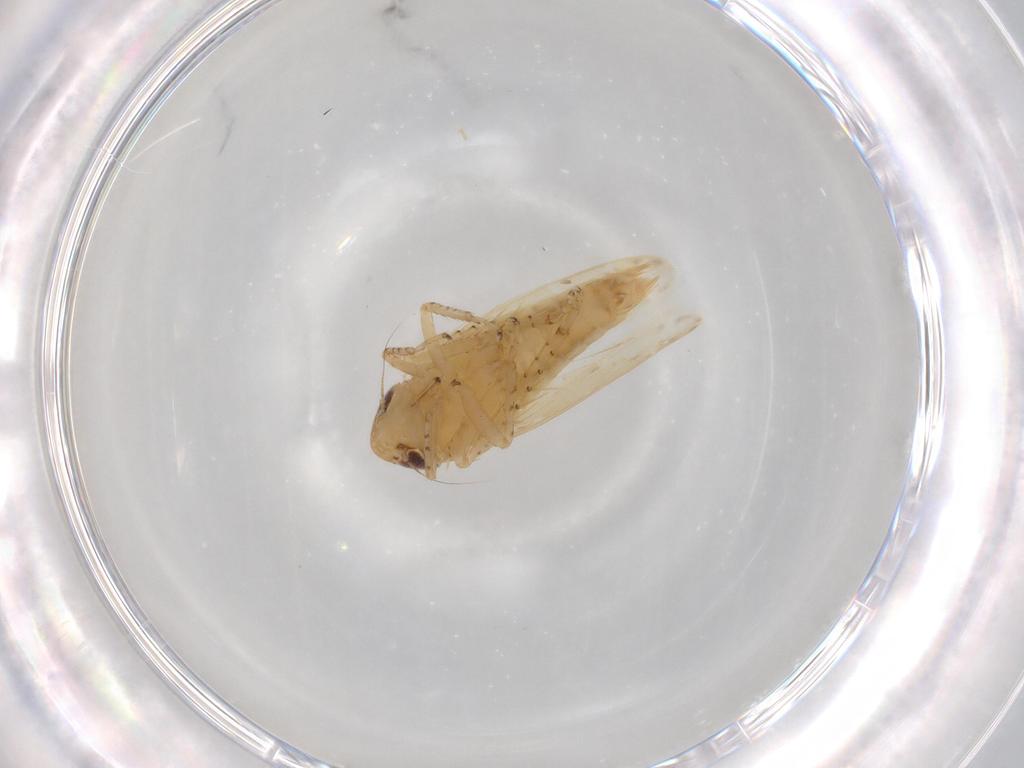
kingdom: Animalia
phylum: Arthropoda
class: Insecta
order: Hemiptera
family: Cicadellidae
